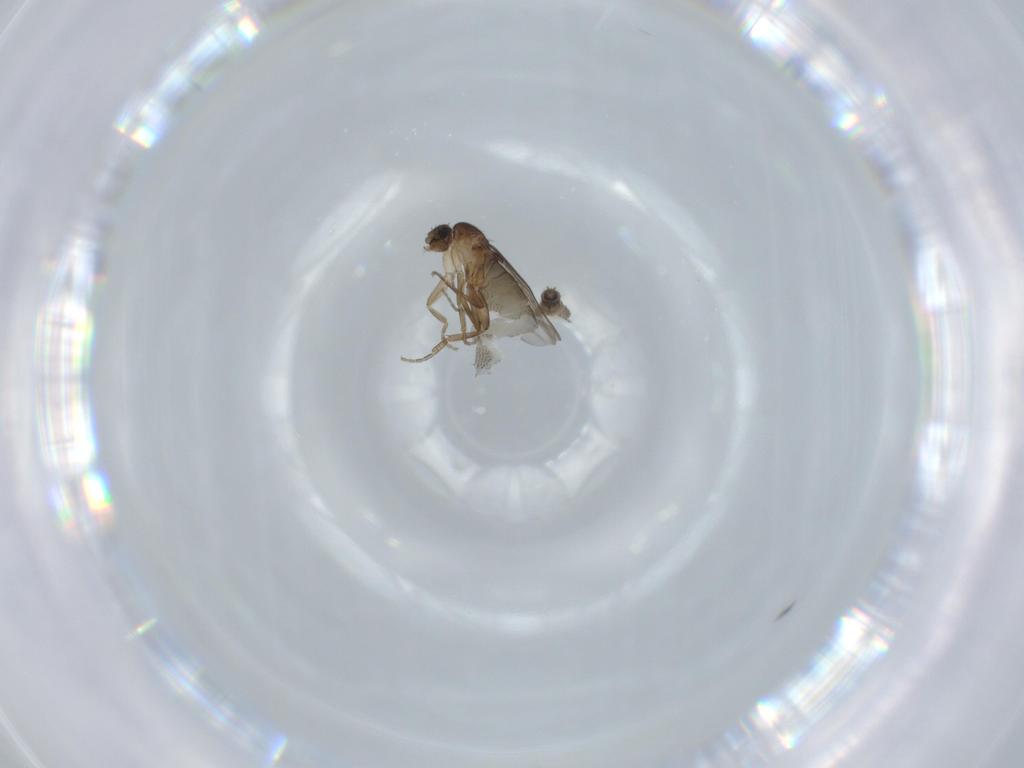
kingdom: Animalia
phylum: Arthropoda
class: Insecta
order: Diptera
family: Phoridae
